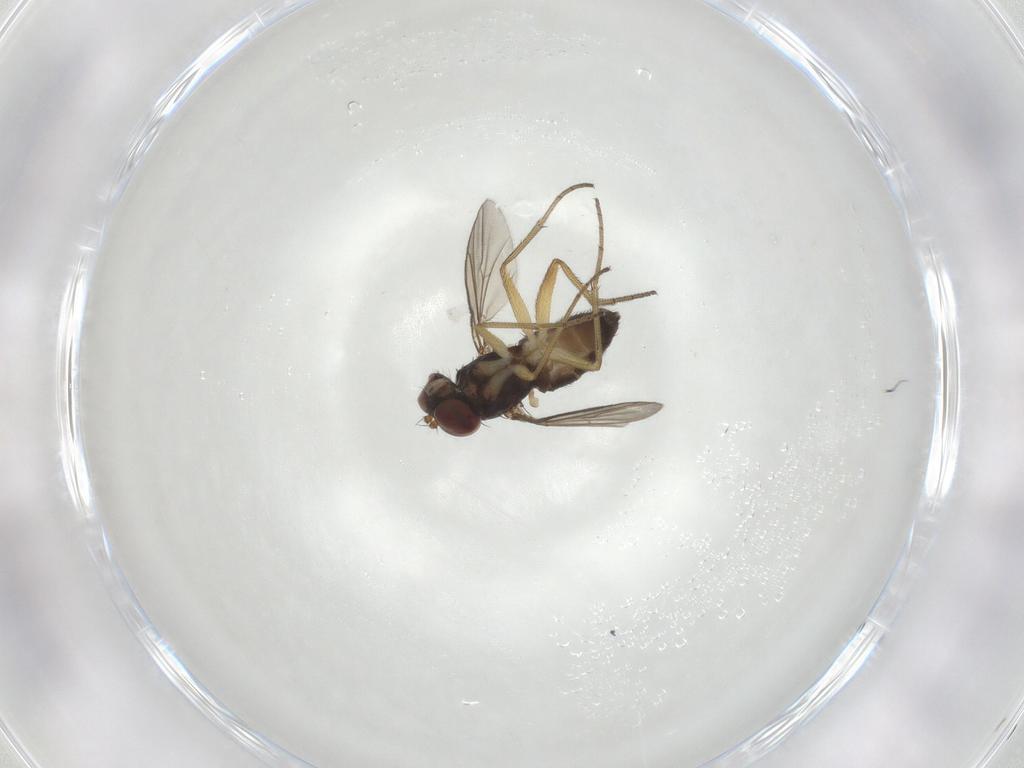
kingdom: Animalia
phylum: Arthropoda
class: Insecta
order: Diptera
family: Dolichopodidae
